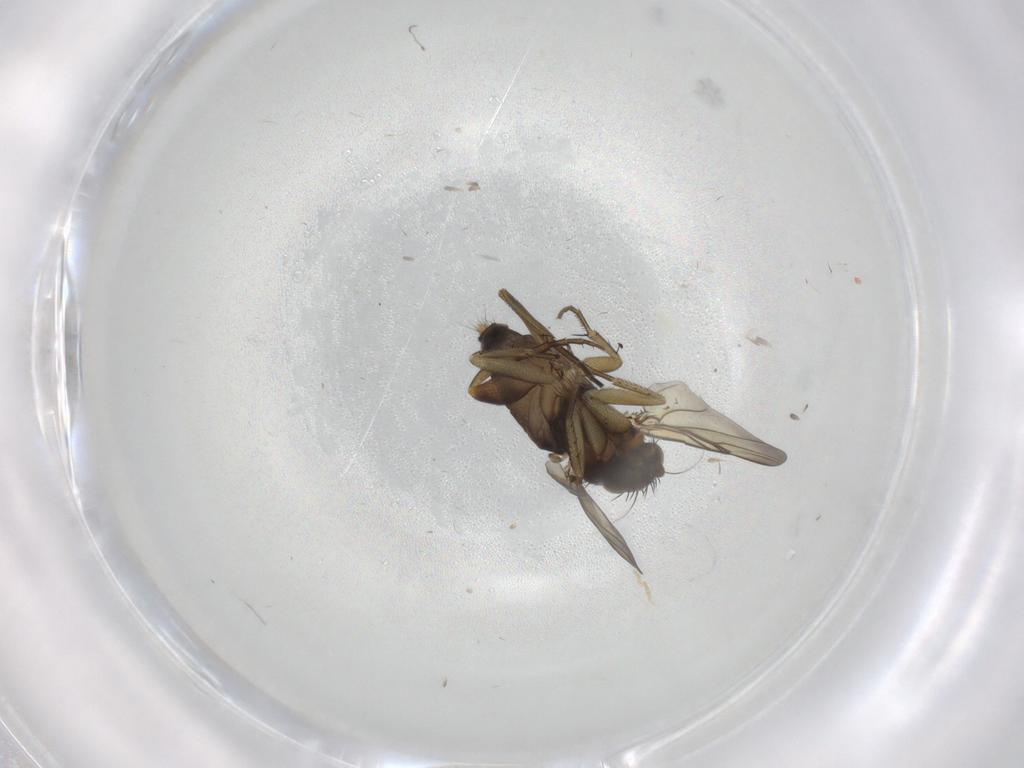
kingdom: Animalia
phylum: Arthropoda
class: Insecta
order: Diptera
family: Phoridae
